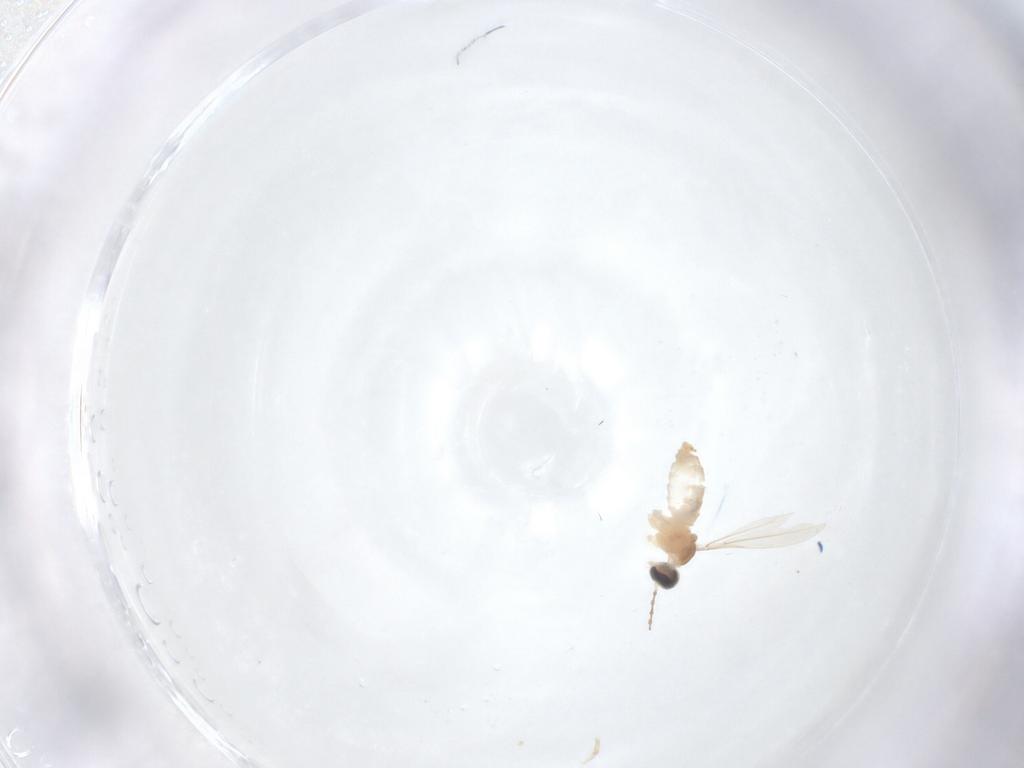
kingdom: Animalia
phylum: Arthropoda
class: Insecta
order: Diptera
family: Cecidomyiidae
